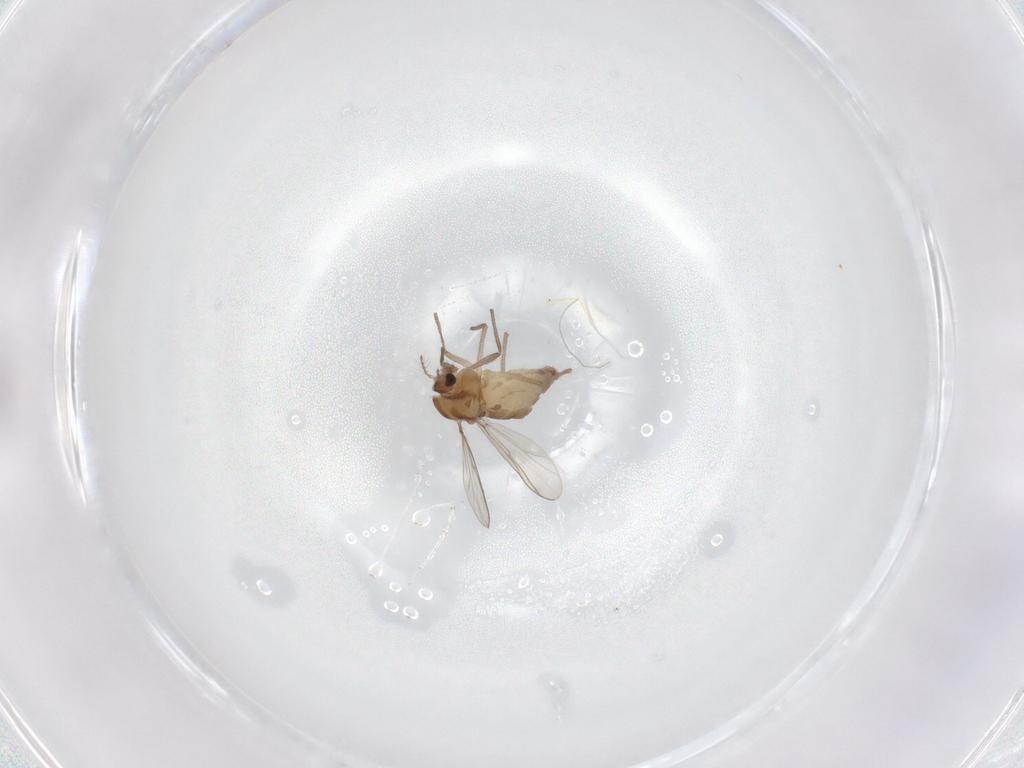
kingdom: Animalia
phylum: Arthropoda
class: Insecta
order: Diptera
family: Chironomidae
